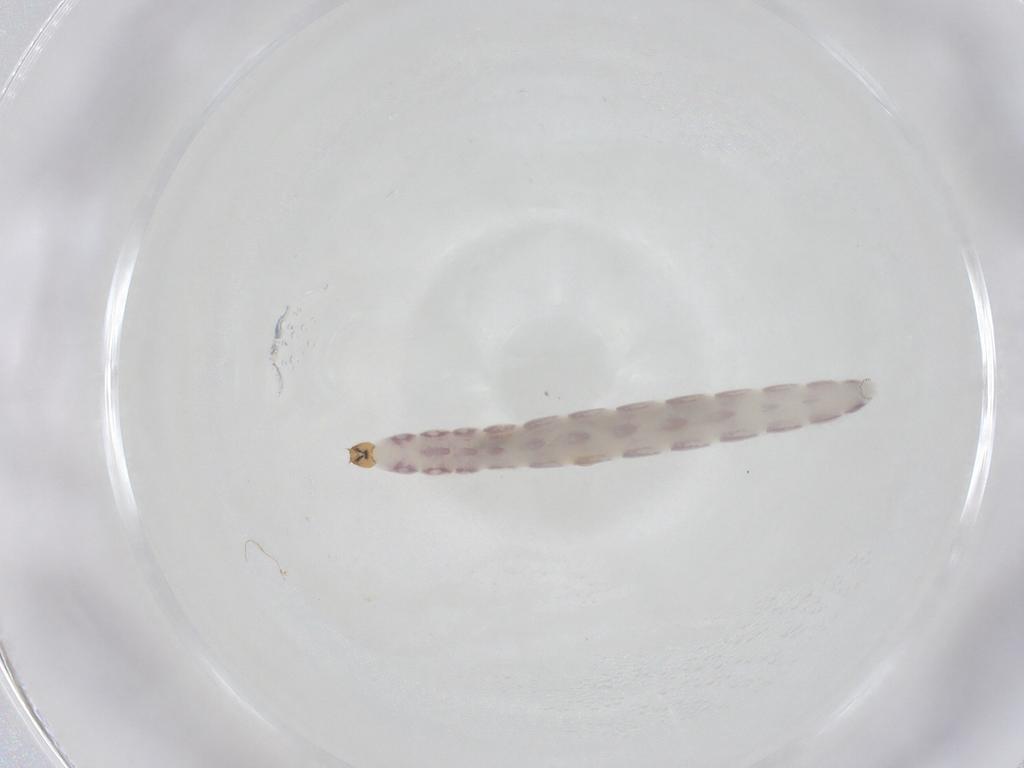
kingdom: Animalia
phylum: Arthropoda
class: Insecta
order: Diptera
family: Chironomidae
